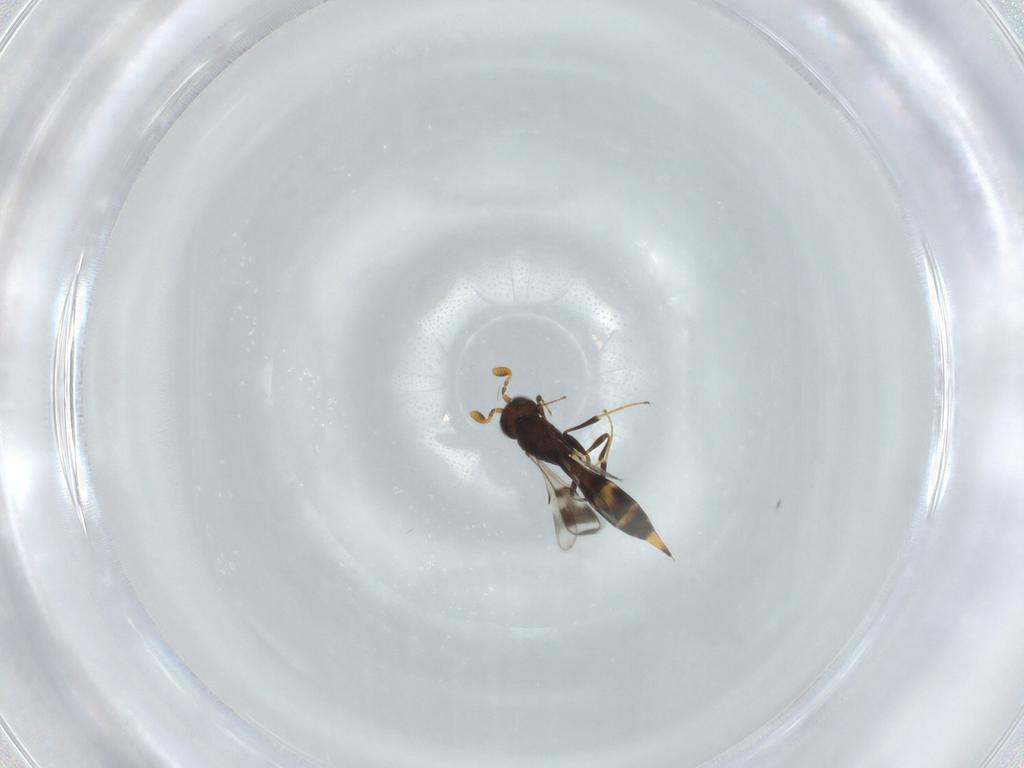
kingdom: Animalia
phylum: Arthropoda
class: Insecta
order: Hymenoptera
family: Scelionidae
